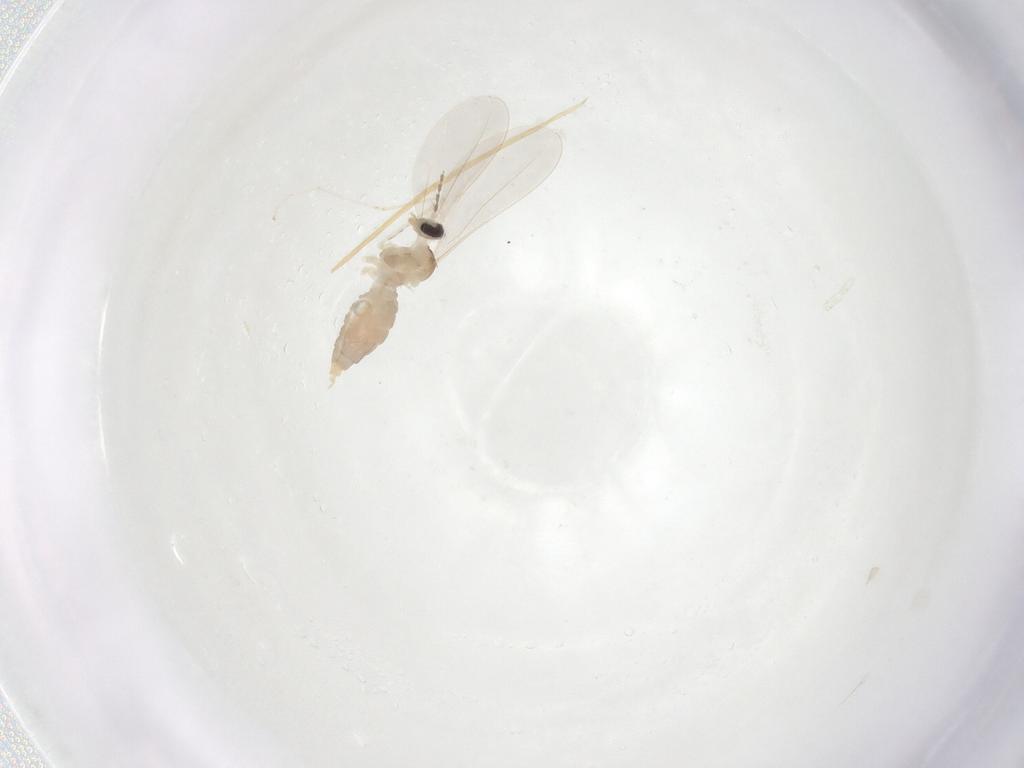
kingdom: Animalia
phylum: Arthropoda
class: Insecta
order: Diptera
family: Cecidomyiidae
